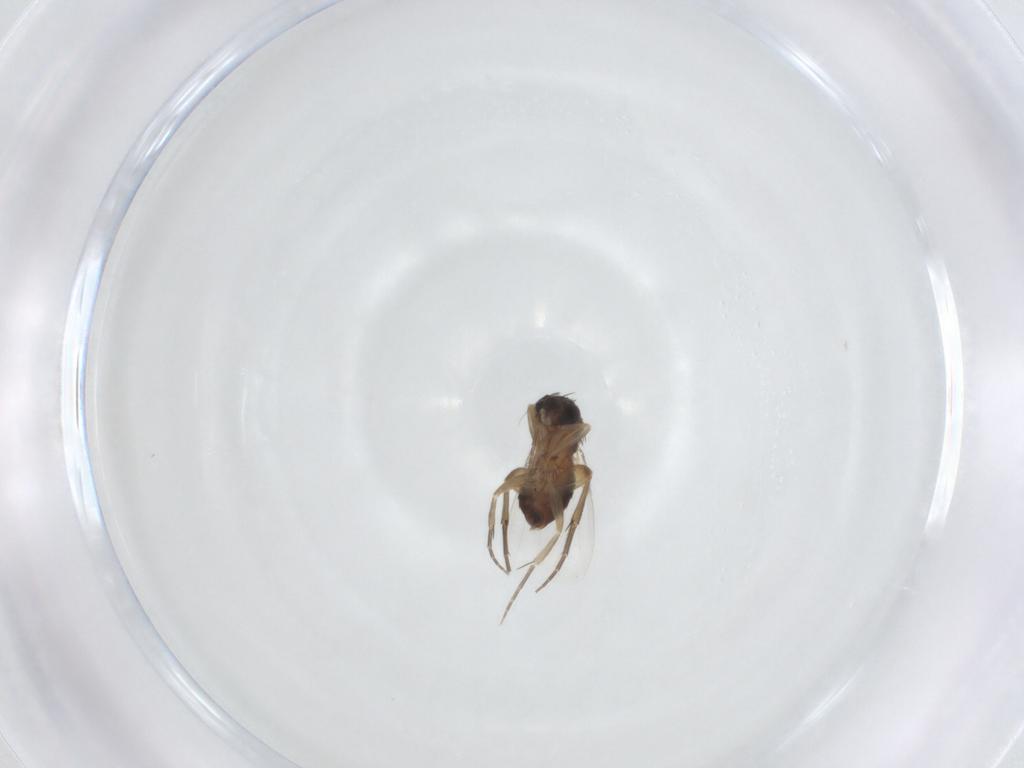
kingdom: Animalia
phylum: Arthropoda
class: Insecta
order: Diptera
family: Phoridae
